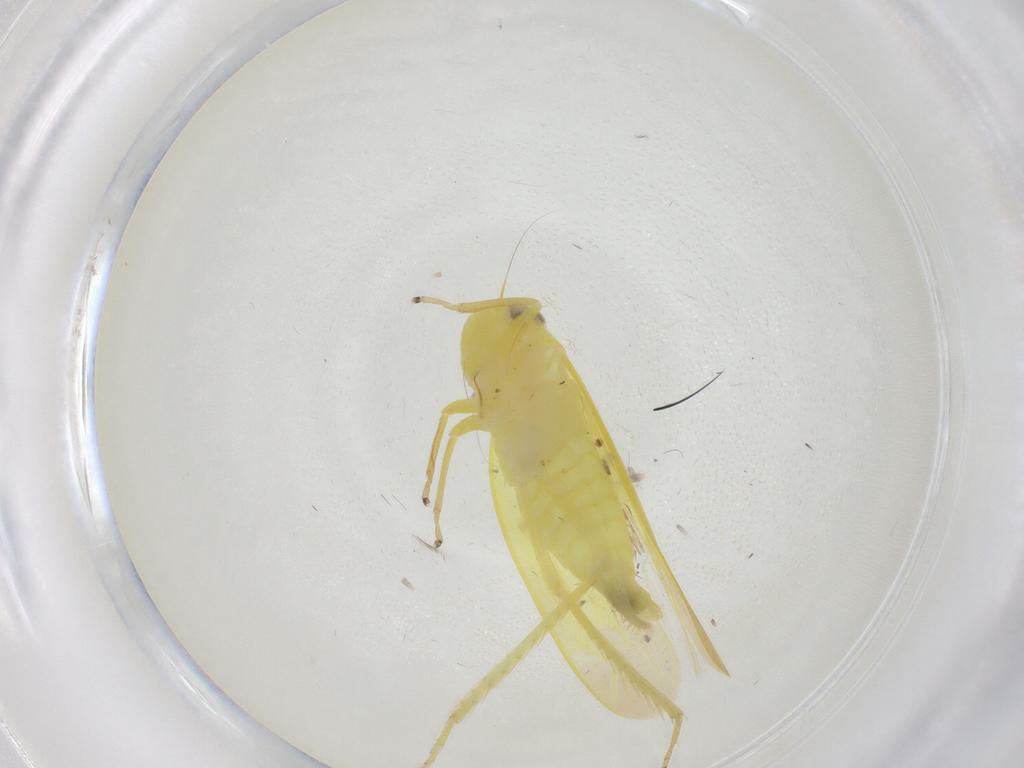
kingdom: Animalia
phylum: Arthropoda
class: Insecta
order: Hemiptera
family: Cicadellidae
